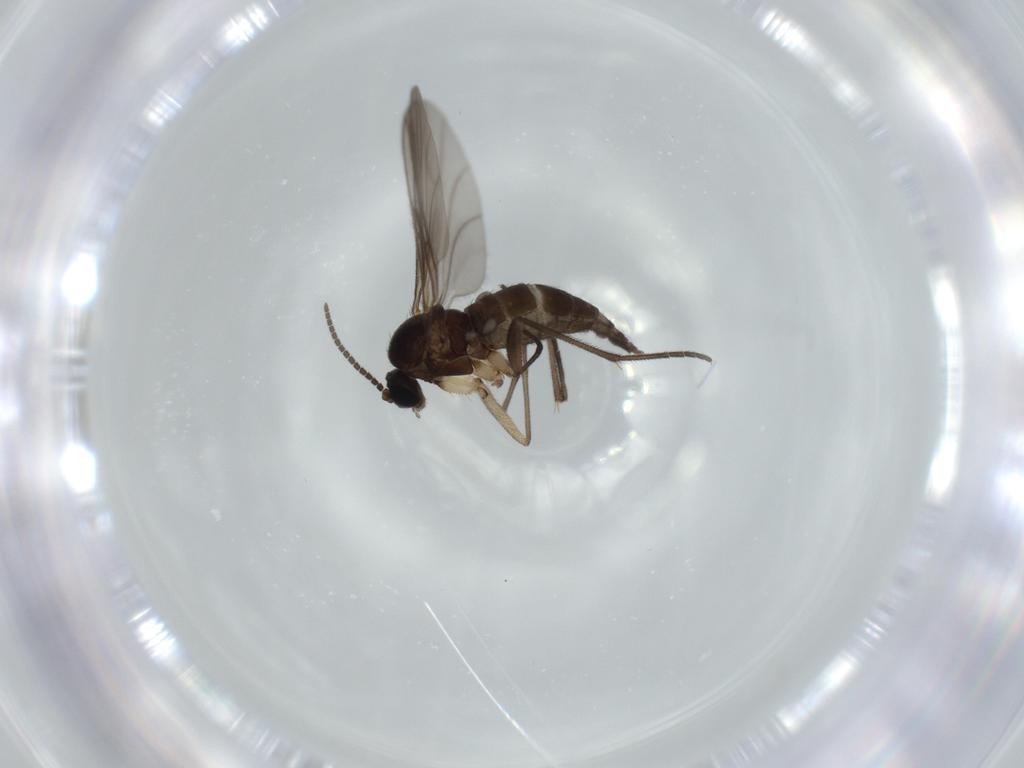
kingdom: Animalia
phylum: Arthropoda
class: Insecta
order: Diptera
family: Sciaridae
